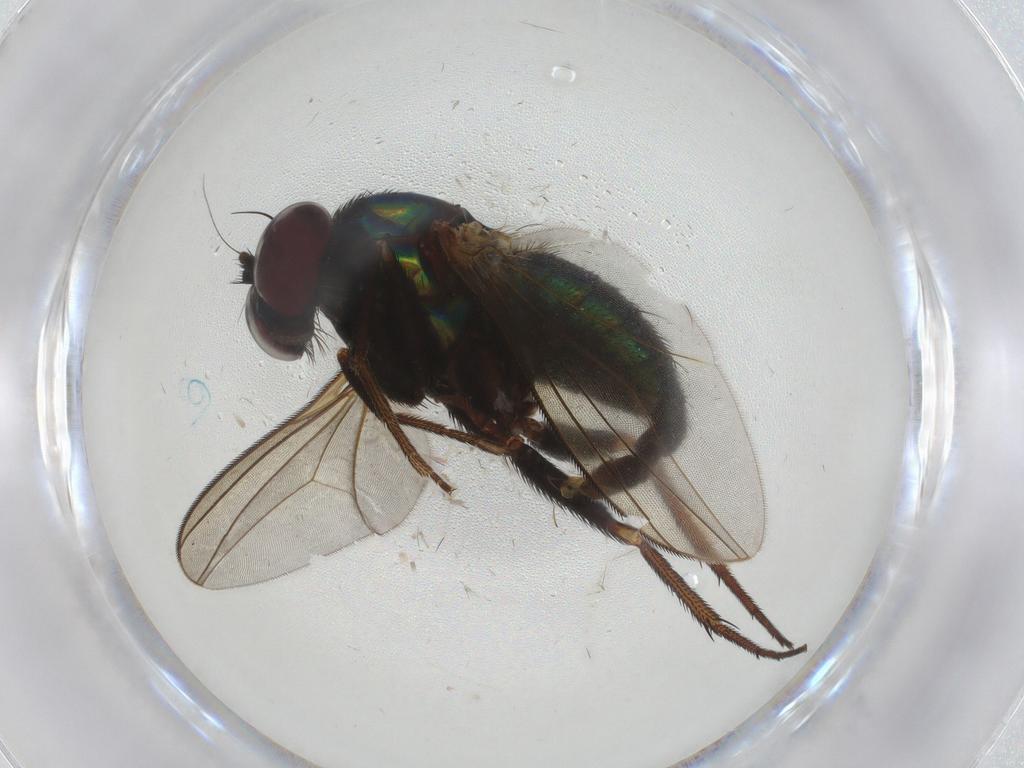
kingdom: Animalia
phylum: Arthropoda
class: Insecta
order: Diptera
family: Dolichopodidae
